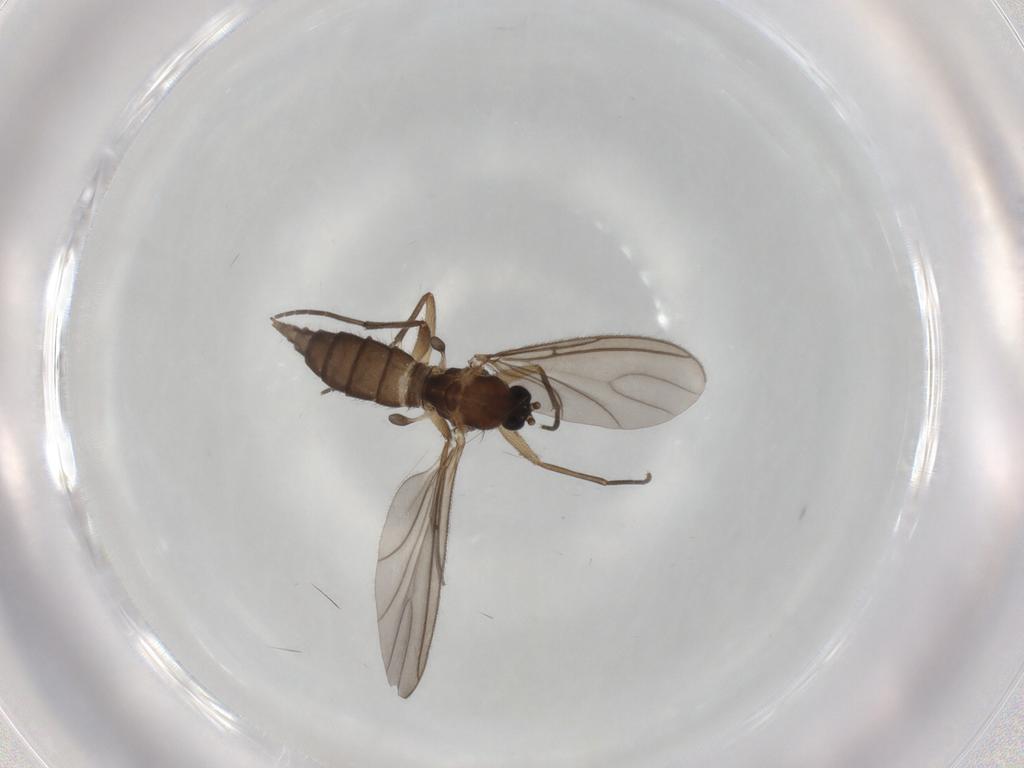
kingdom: Animalia
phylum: Arthropoda
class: Insecta
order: Diptera
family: Sciaridae
